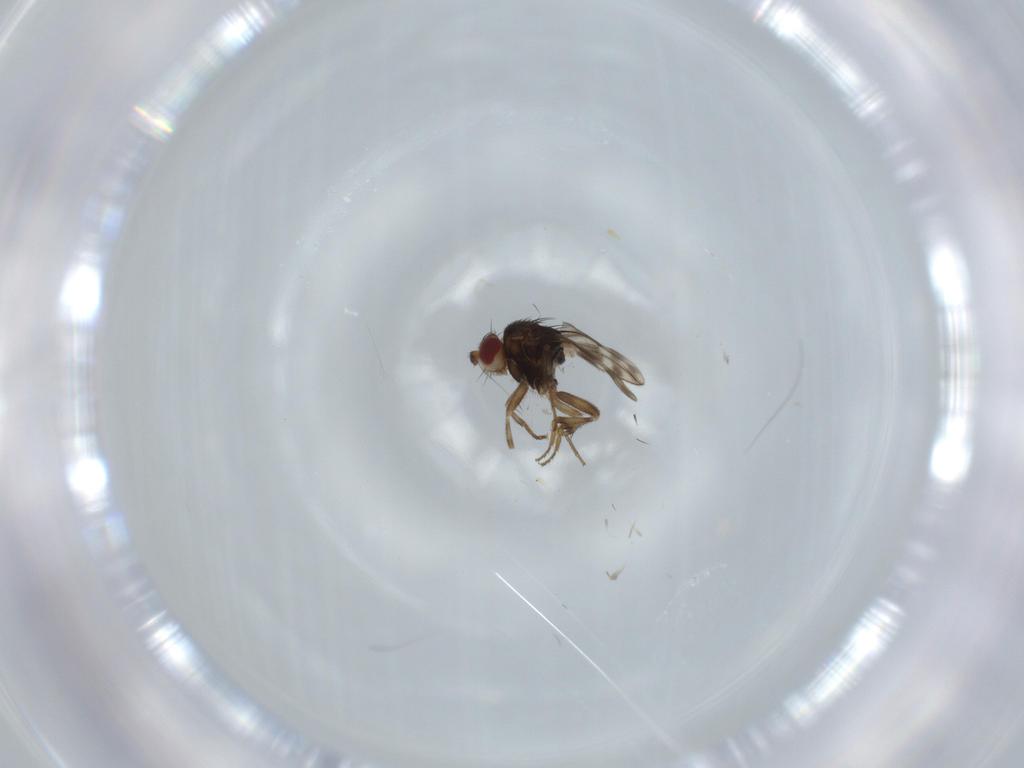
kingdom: Animalia
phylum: Arthropoda
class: Insecta
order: Diptera
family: Sphaeroceridae
